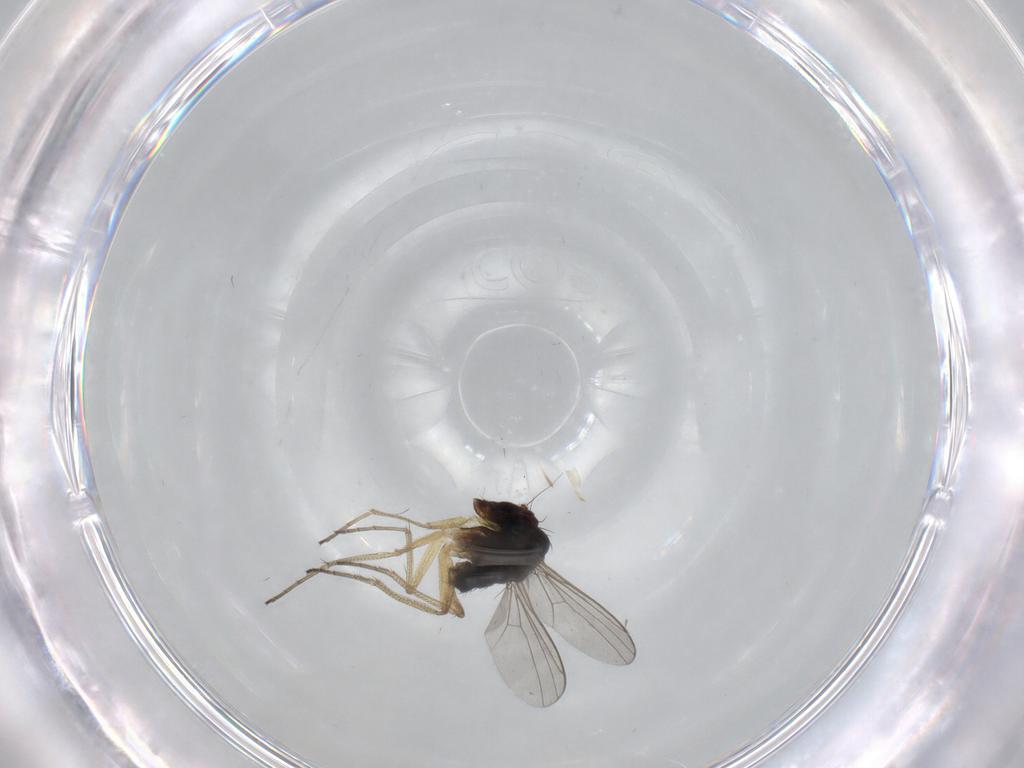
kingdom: Animalia
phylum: Arthropoda
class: Insecta
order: Diptera
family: Dolichopodidae
